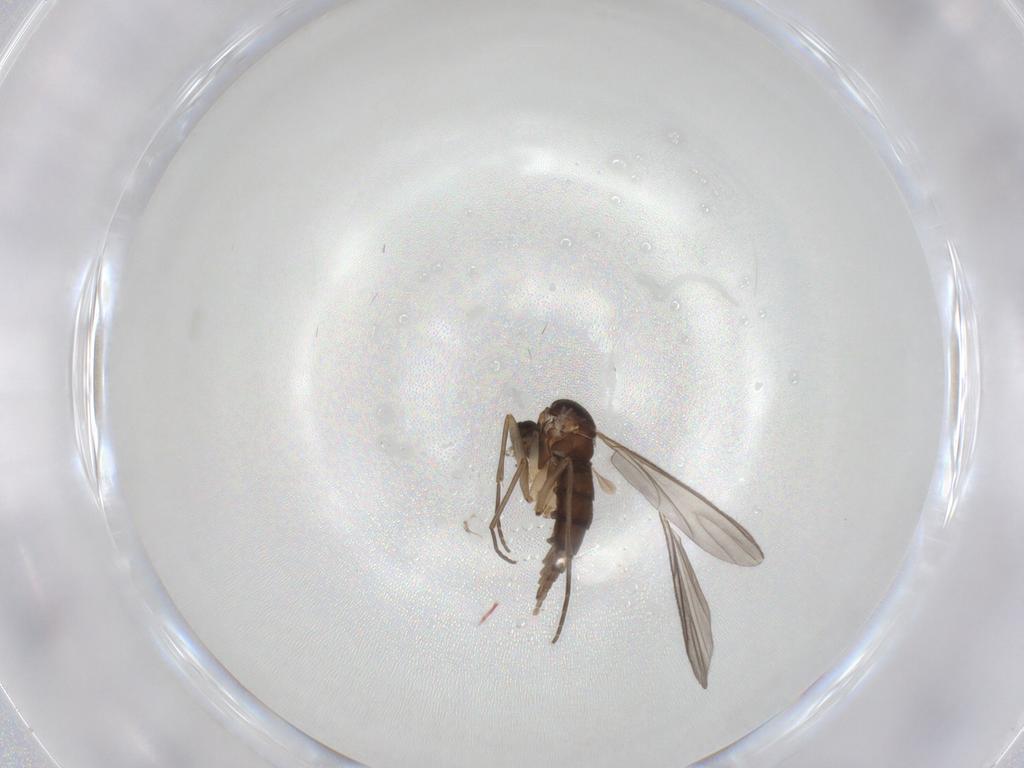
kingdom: Animalia
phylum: Arthropoda
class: Insecta
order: Diptera
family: Sciaridae
